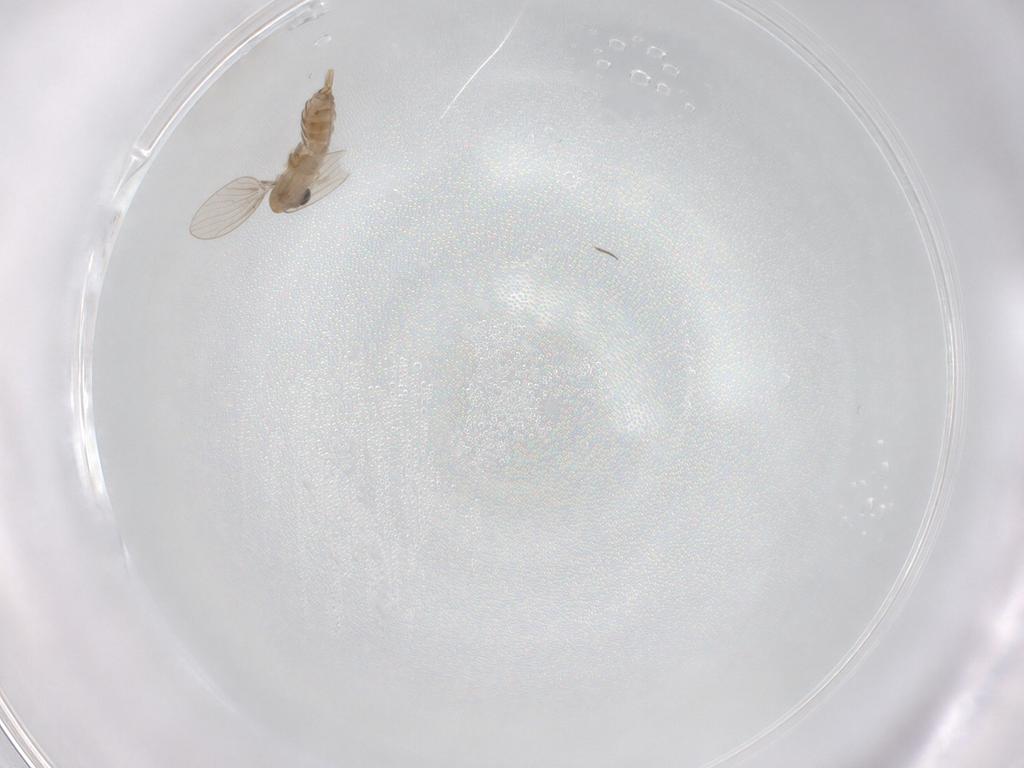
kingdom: Animalia
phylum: Arthropoda
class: Insecta
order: Diptera
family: Psychodidae
